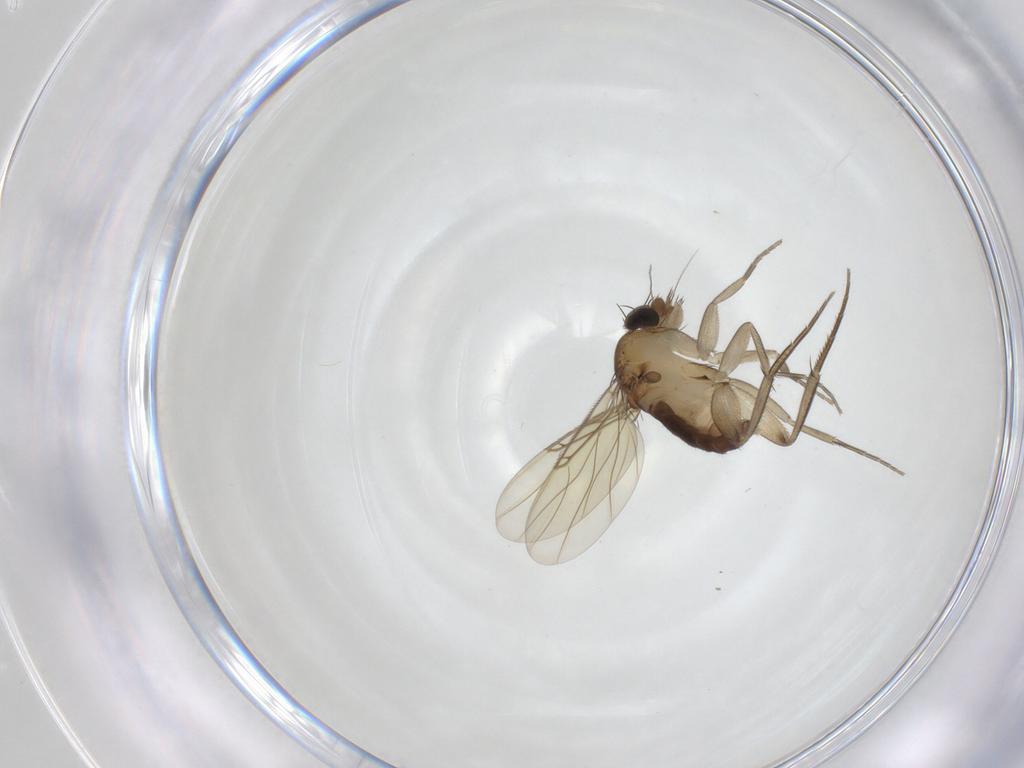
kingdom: Animalia
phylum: Arthropoda
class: Insecta
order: Diptera
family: Phoridae
